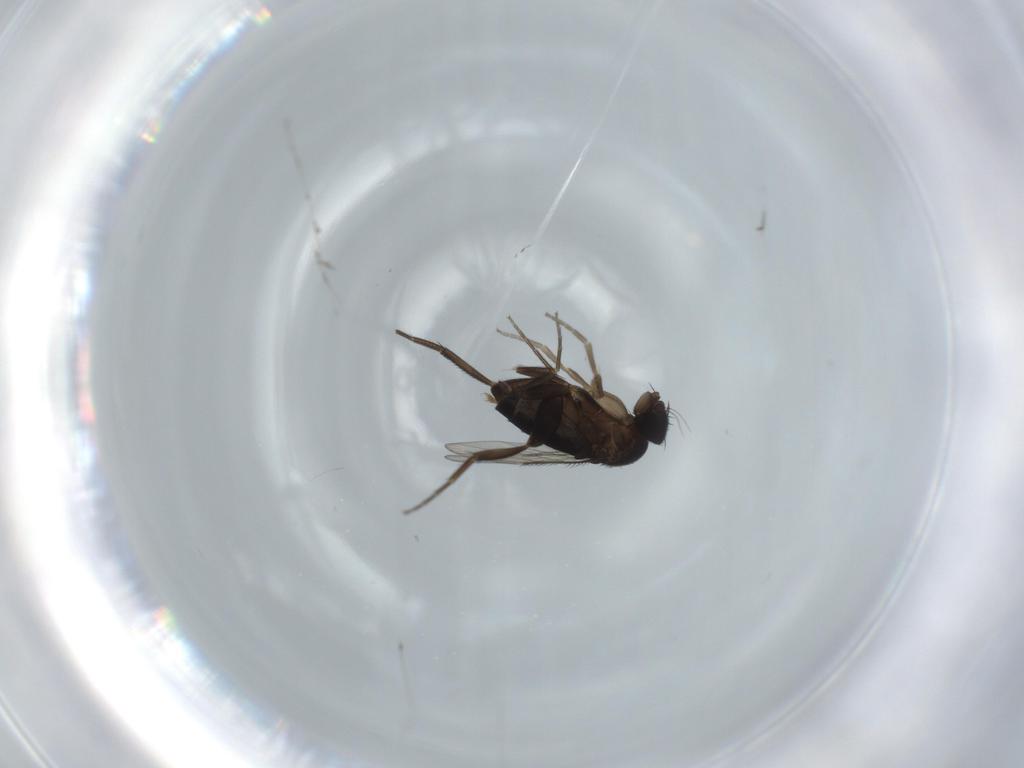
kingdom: Animalia
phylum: Arthropoda
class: Insecta
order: Diptera
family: Phoridae
